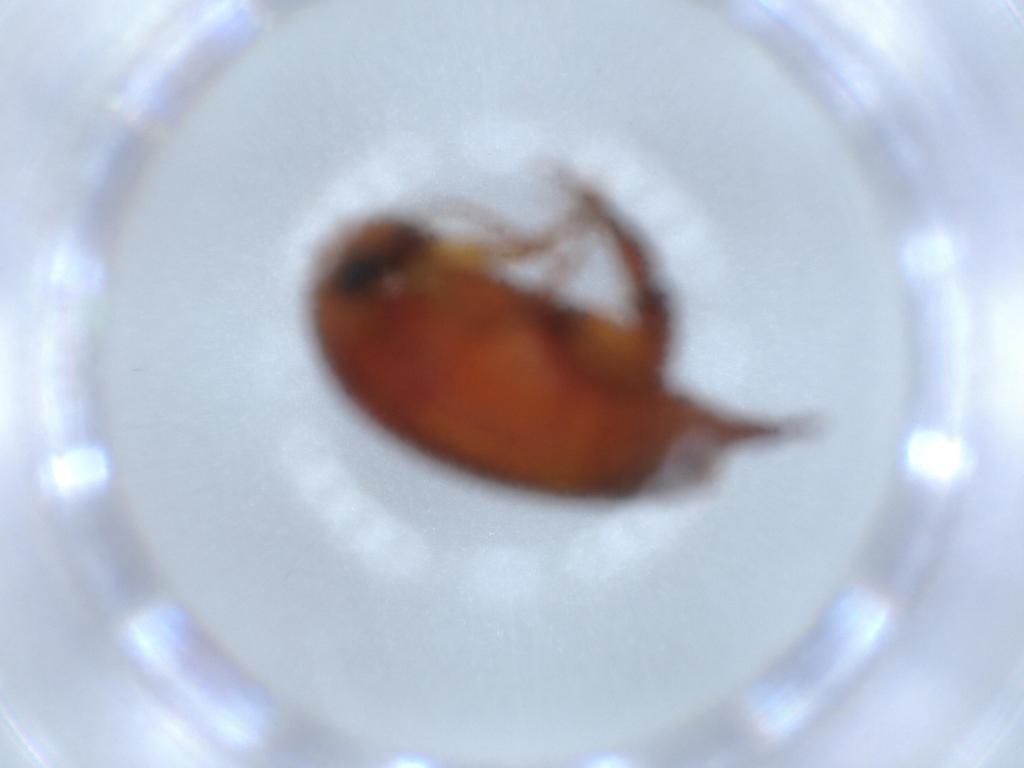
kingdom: Animalia
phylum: Arthropoda
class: Insecta
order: Coleoptera
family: Mordellidae
